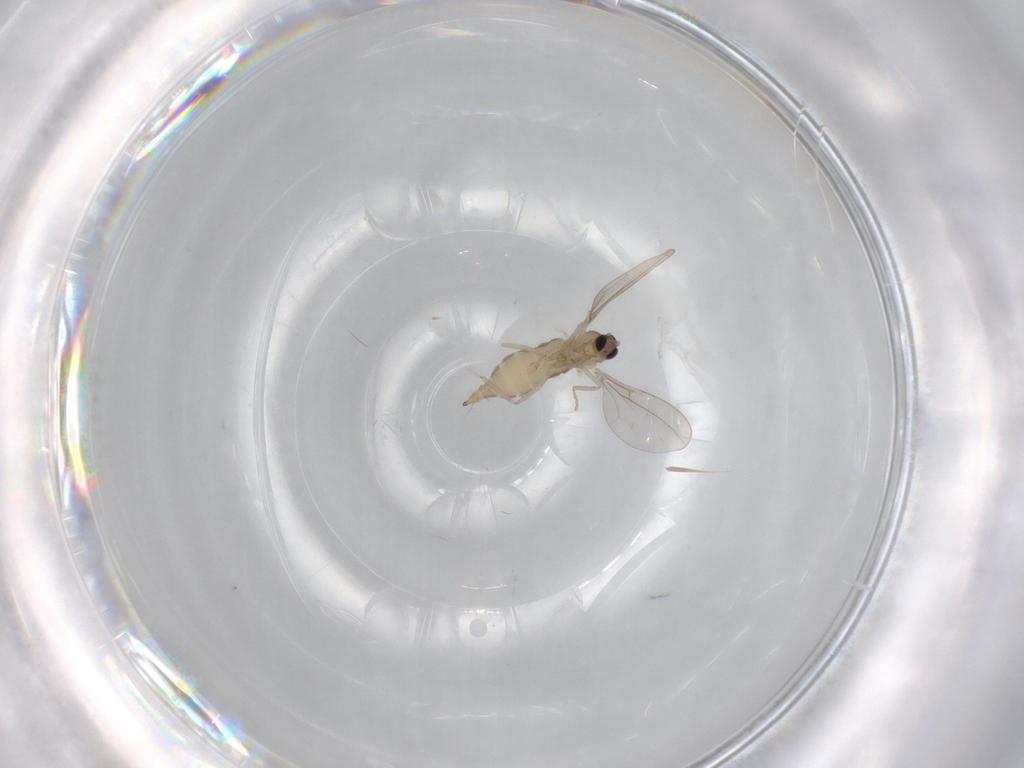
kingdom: Animalia
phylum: Arthropoda
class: Insecta
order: Diptera
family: Cecidomyiidae
